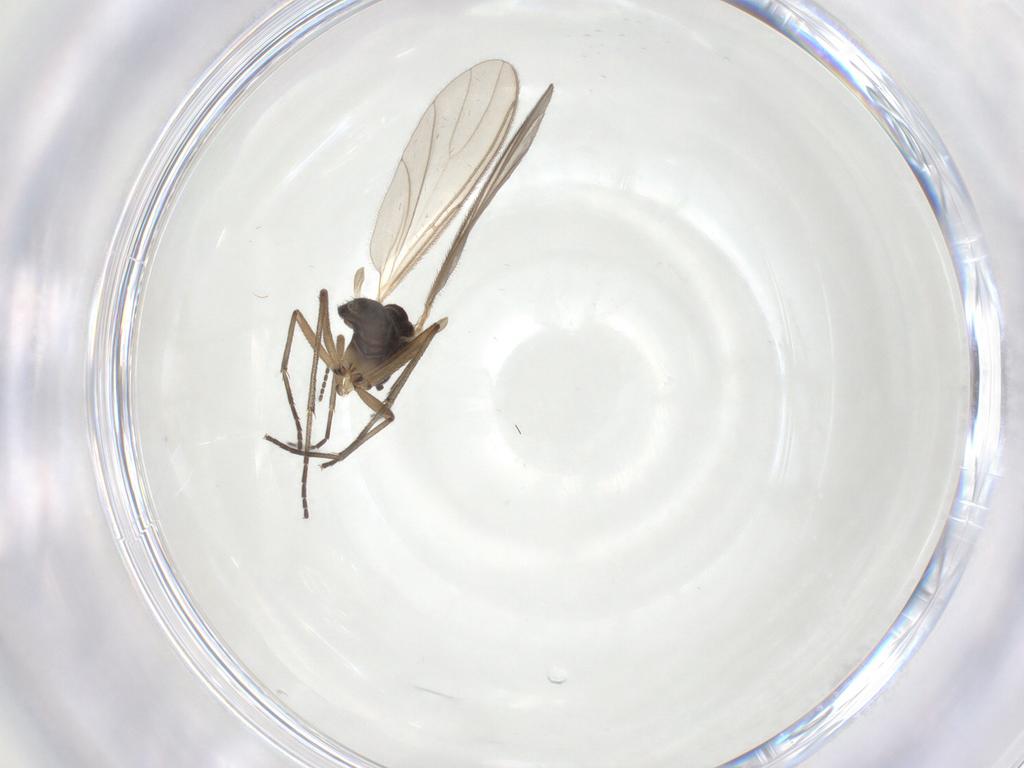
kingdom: Animalia
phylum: Arthropoda
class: Insecta
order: Diptera
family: Sciaridae
